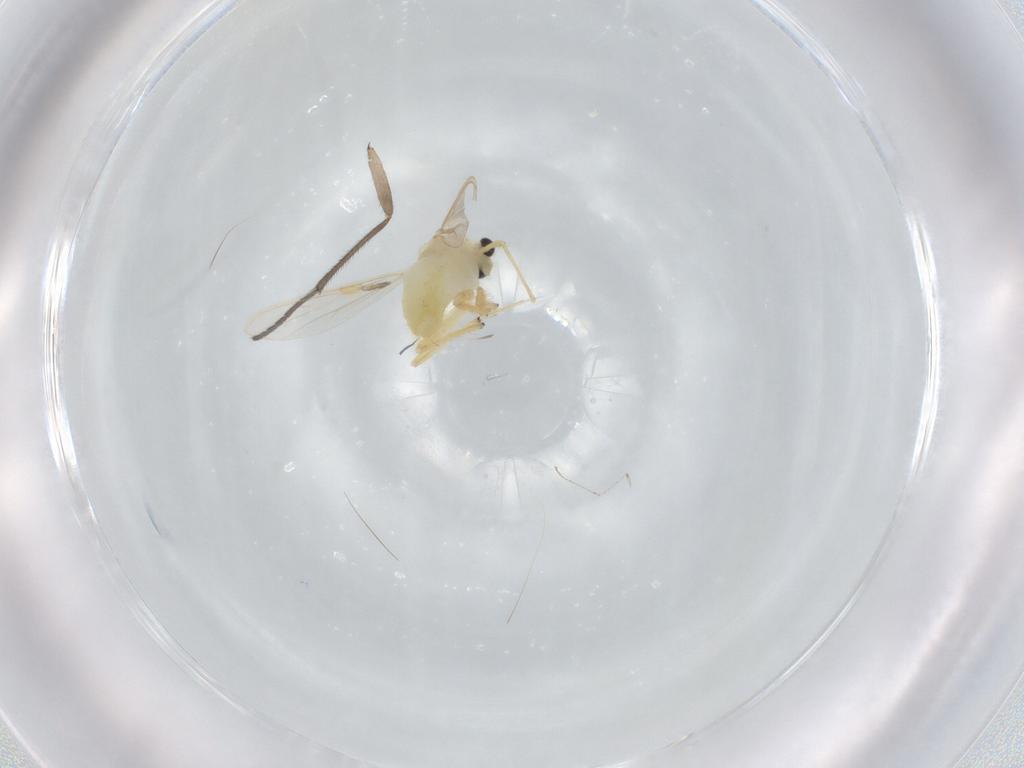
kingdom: Animalia
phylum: Arthropoda
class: Insecta
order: Diptera
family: Chironomidae
